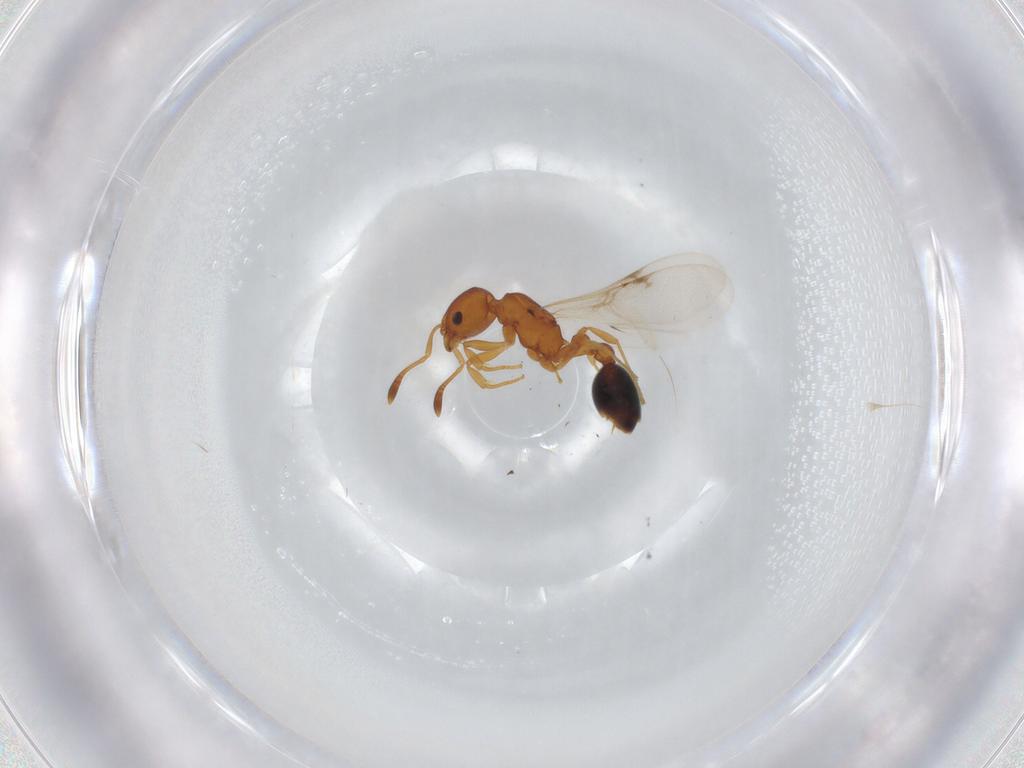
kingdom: Animalia
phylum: Arthropoda
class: Insecta
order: Hymenoptera
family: Formicidae
